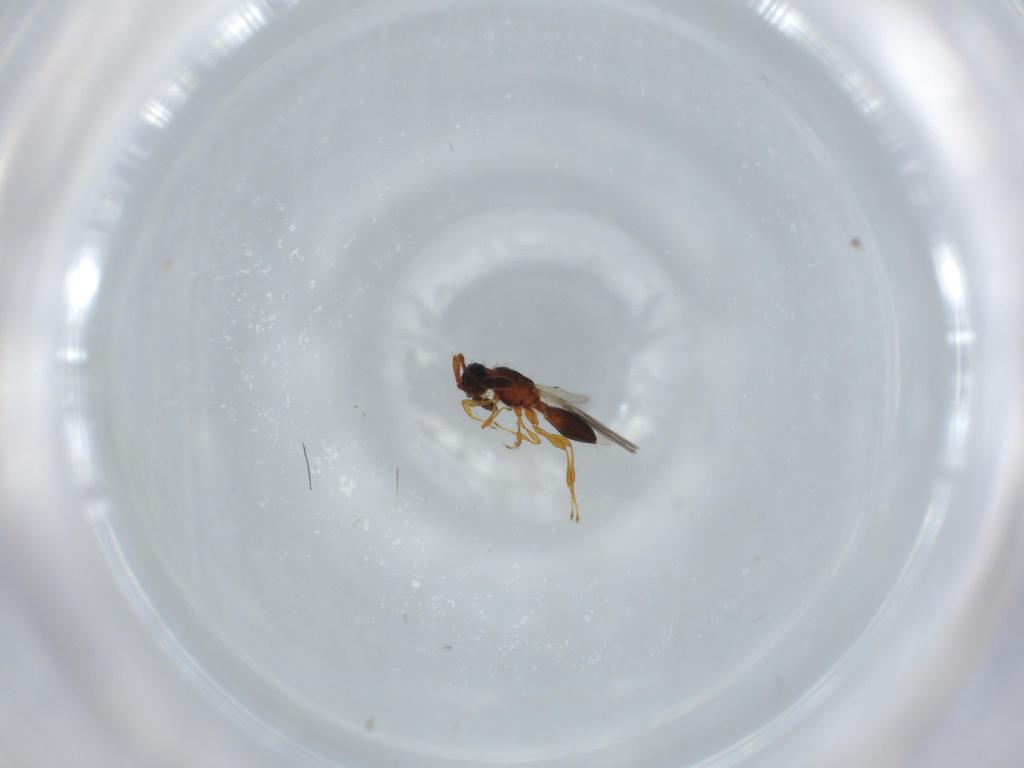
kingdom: Animalia
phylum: Arthropoda
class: Insecta
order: Hymenoptera
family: Diapriidae
